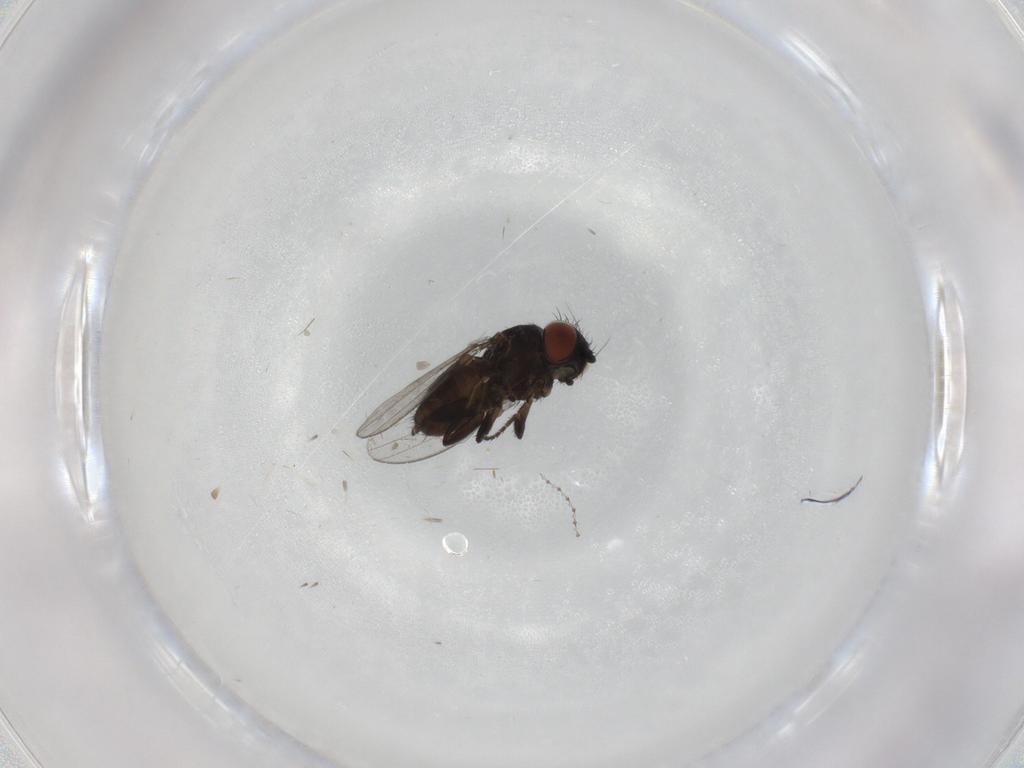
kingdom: Animalia
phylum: Arthropoda
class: Insecta
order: Diptera
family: Milichiidae
